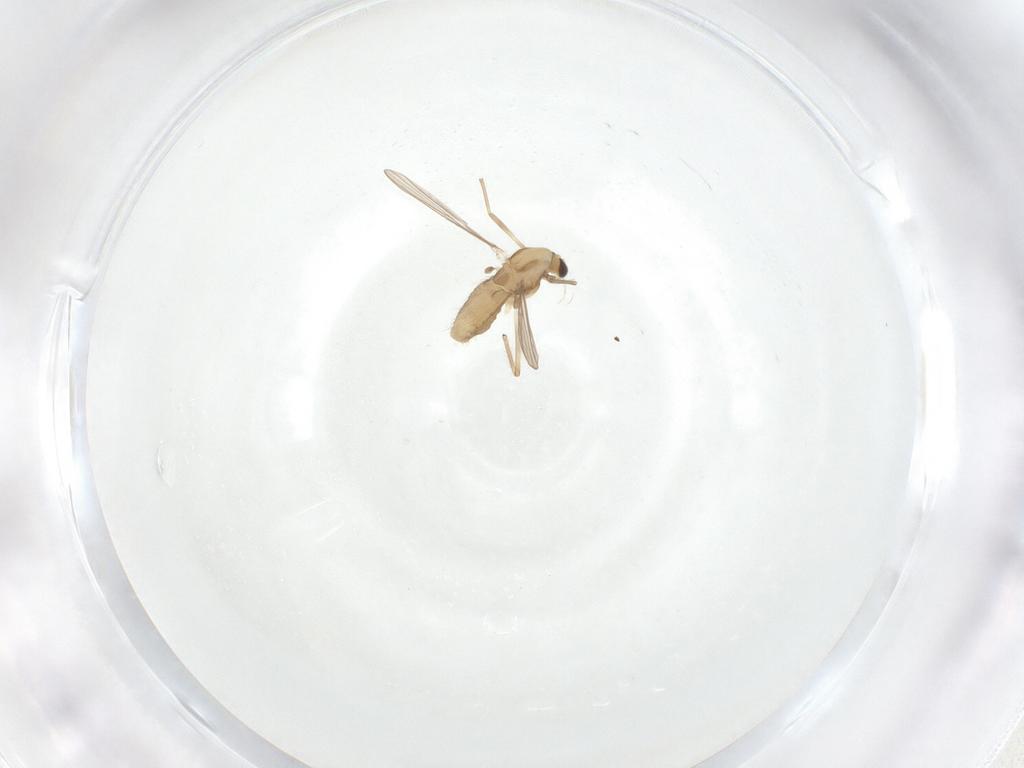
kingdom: Animalia
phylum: Arthropoda
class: Insecta
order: Diptera
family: Chironomidae
